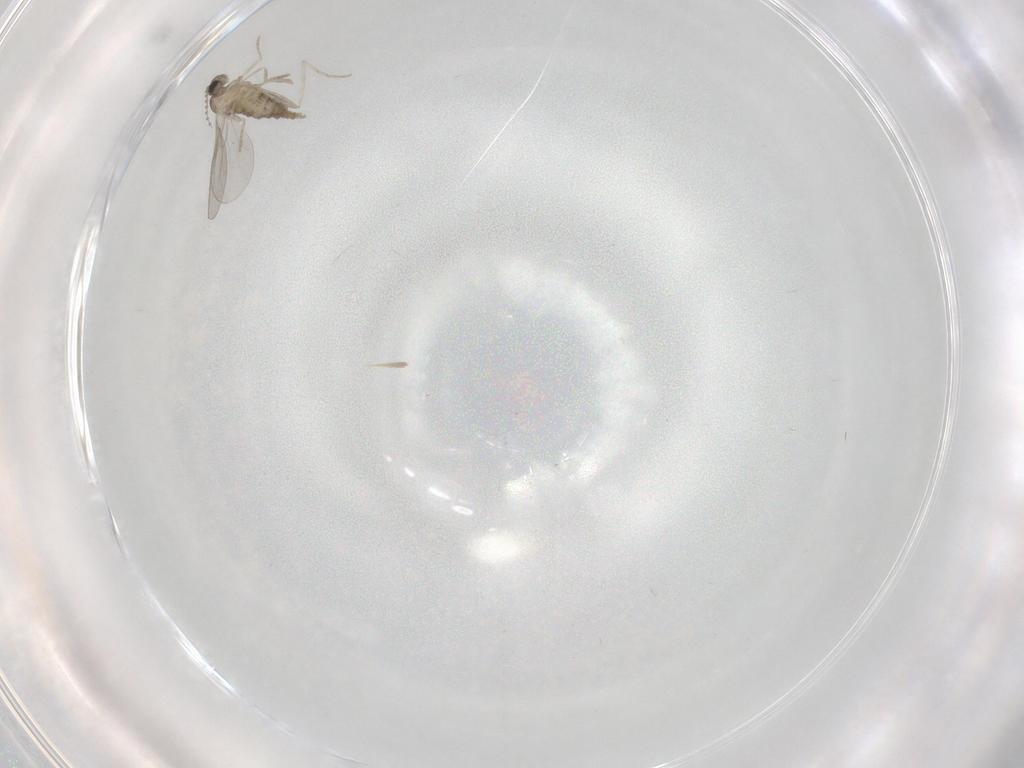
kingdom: Animalia
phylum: Arthropoda
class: Insecta
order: Diptera
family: Cecidomyiidae
